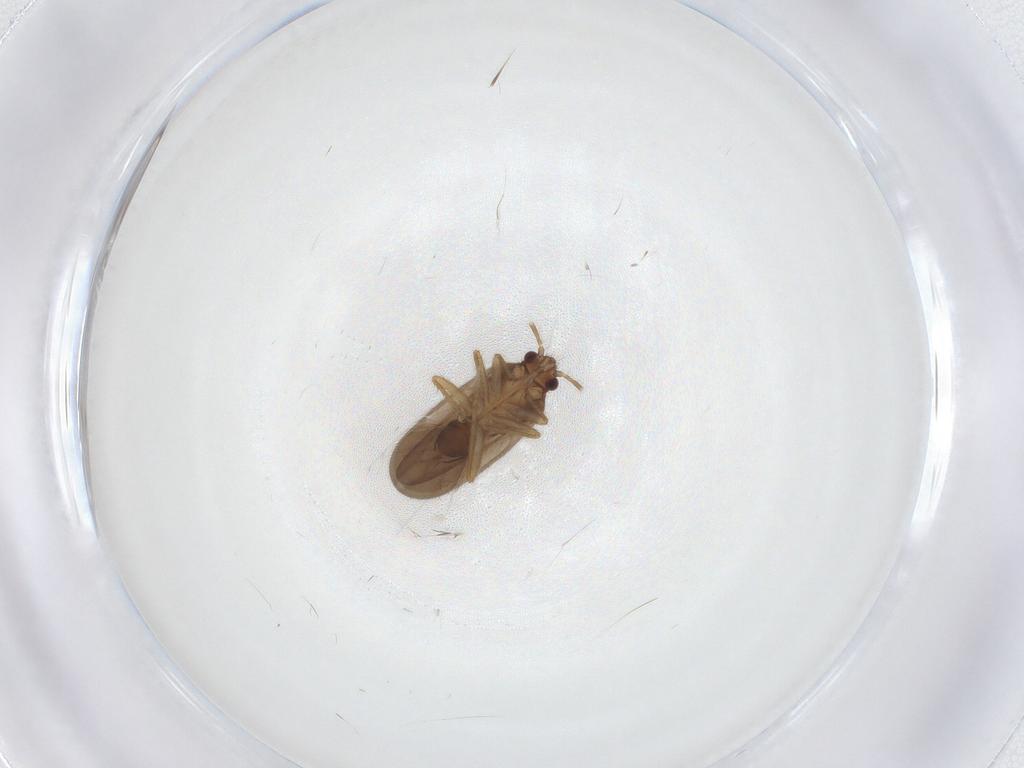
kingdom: Animalia
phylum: Arthropoda
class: Insecta
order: Hemiptera
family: Ceratocombidae
